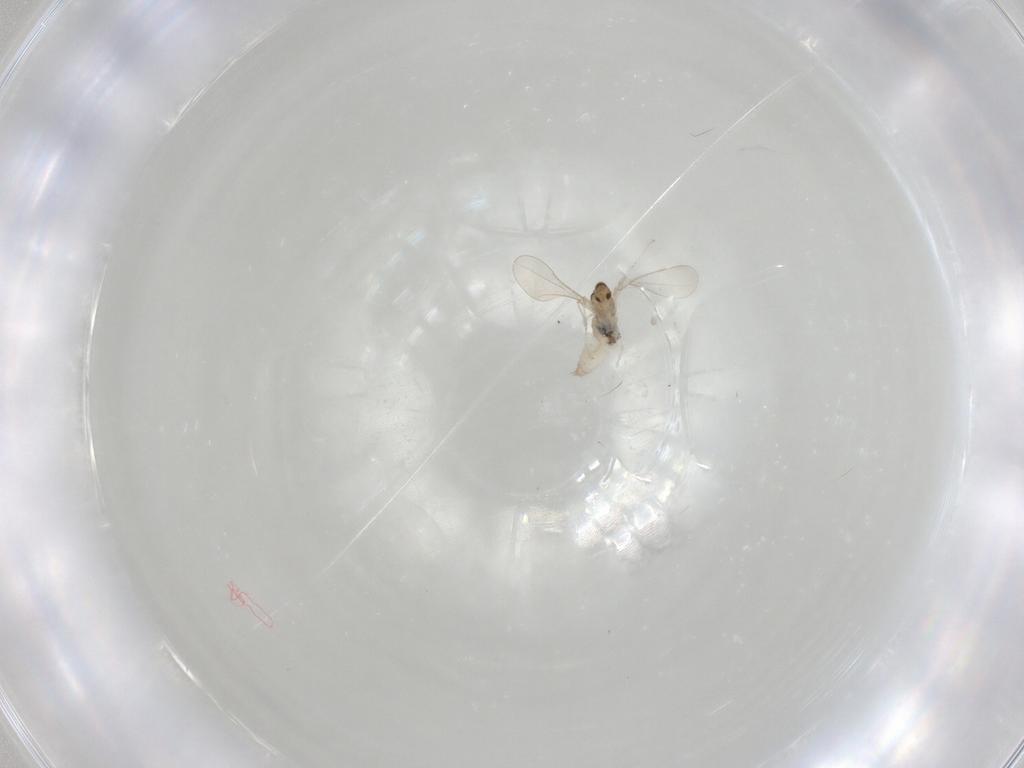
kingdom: Animalia
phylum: Arthropoda
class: Insecta
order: Diptera
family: Cecidomyiidae
